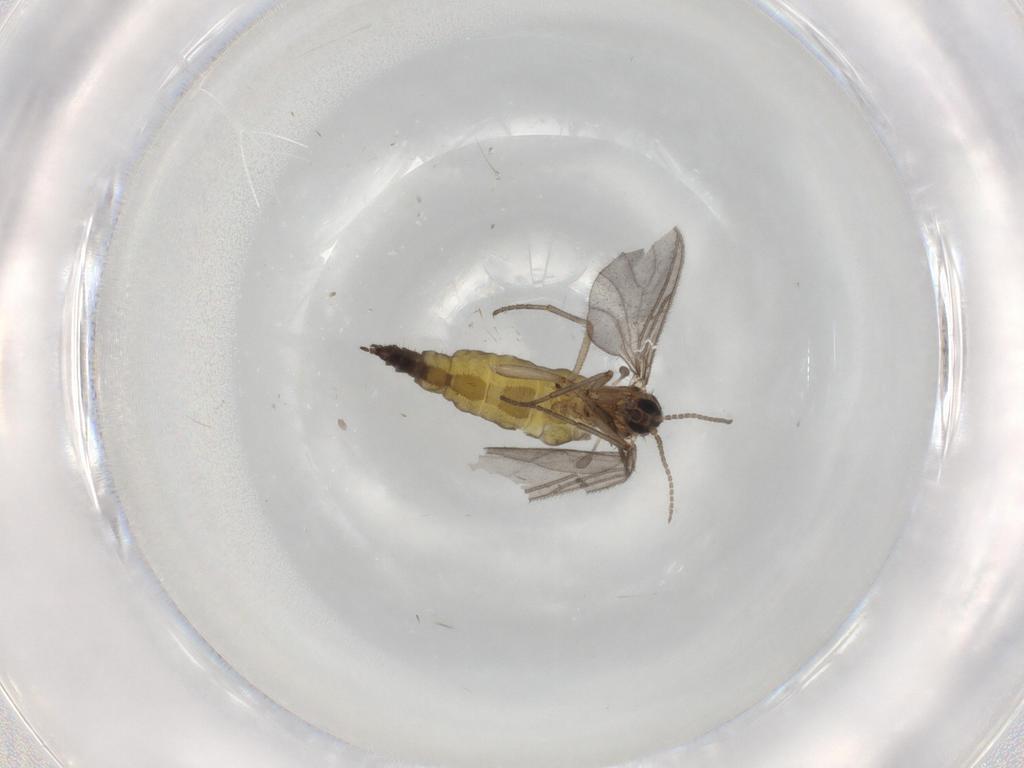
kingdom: Animalia
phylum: Arthropoda
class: Insecta
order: Diptera
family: Sciaridae
